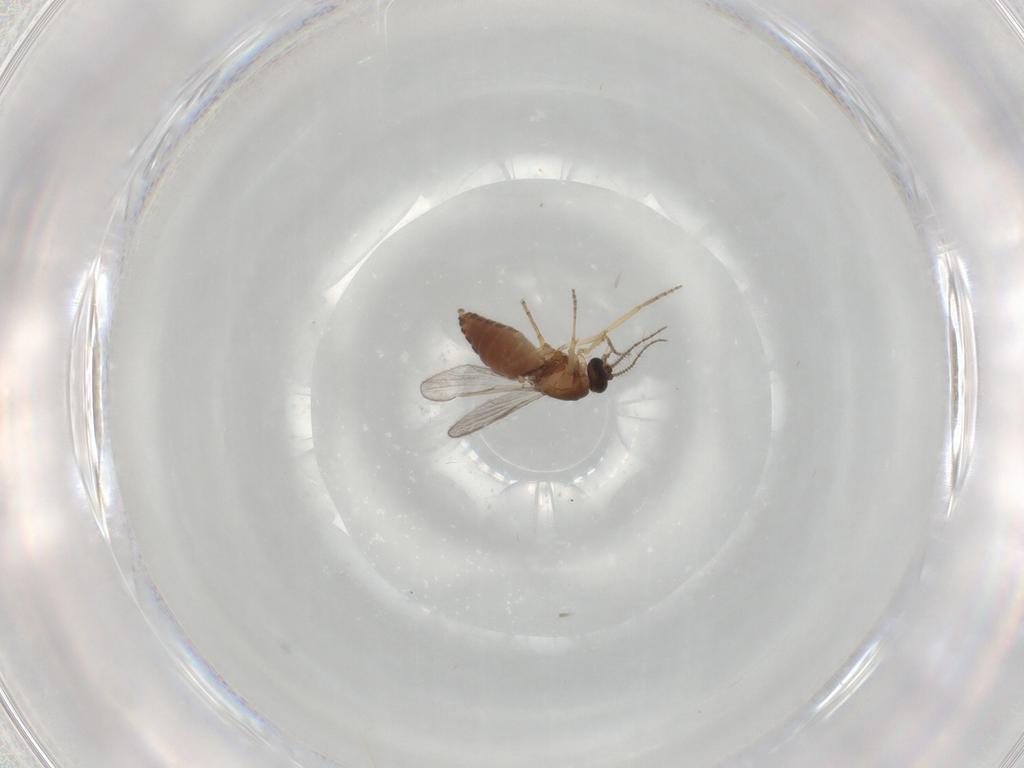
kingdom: Animalia
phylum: Arthropoda
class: Insecta
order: Diptera
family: Ceratopogonidae
